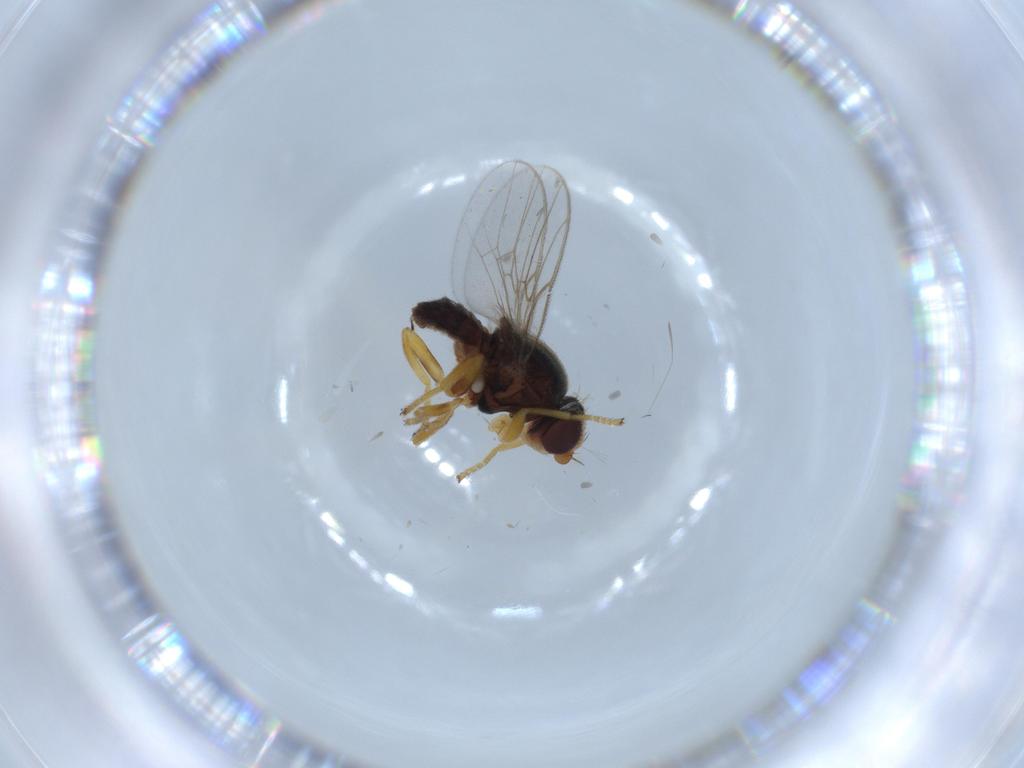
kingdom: Animalia
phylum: Arthropoda
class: Insecta
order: Diptera
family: Chloropidae
